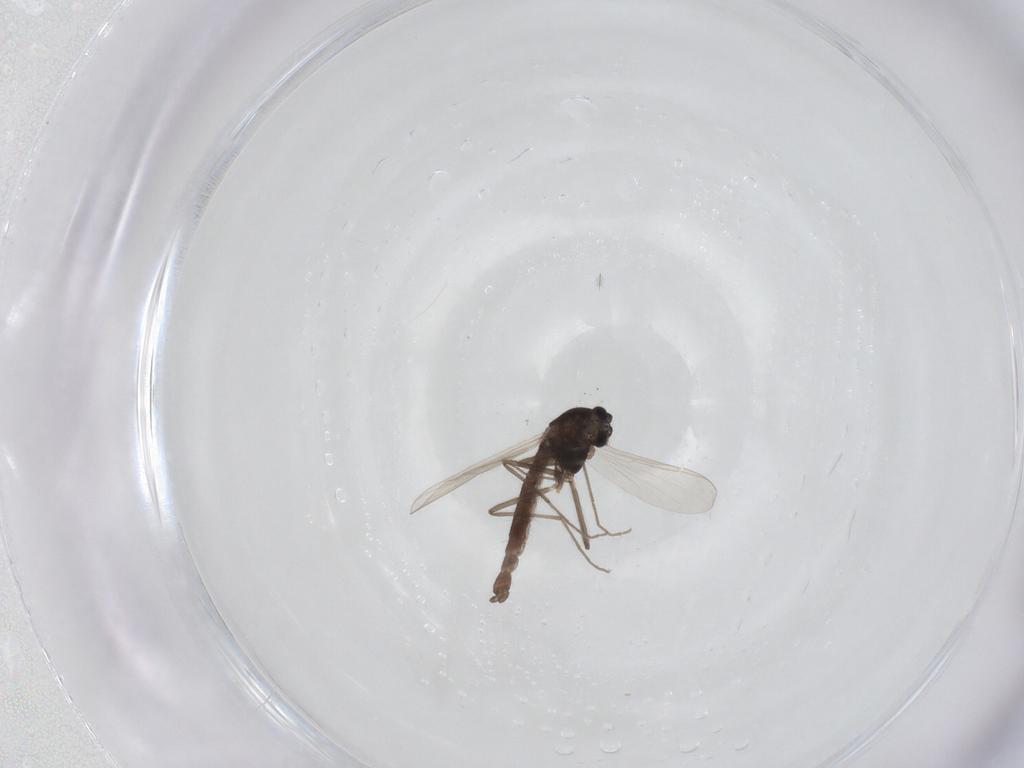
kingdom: Animalia
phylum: Arthropoda
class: Insecta
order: Diptera
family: Chironomidae
